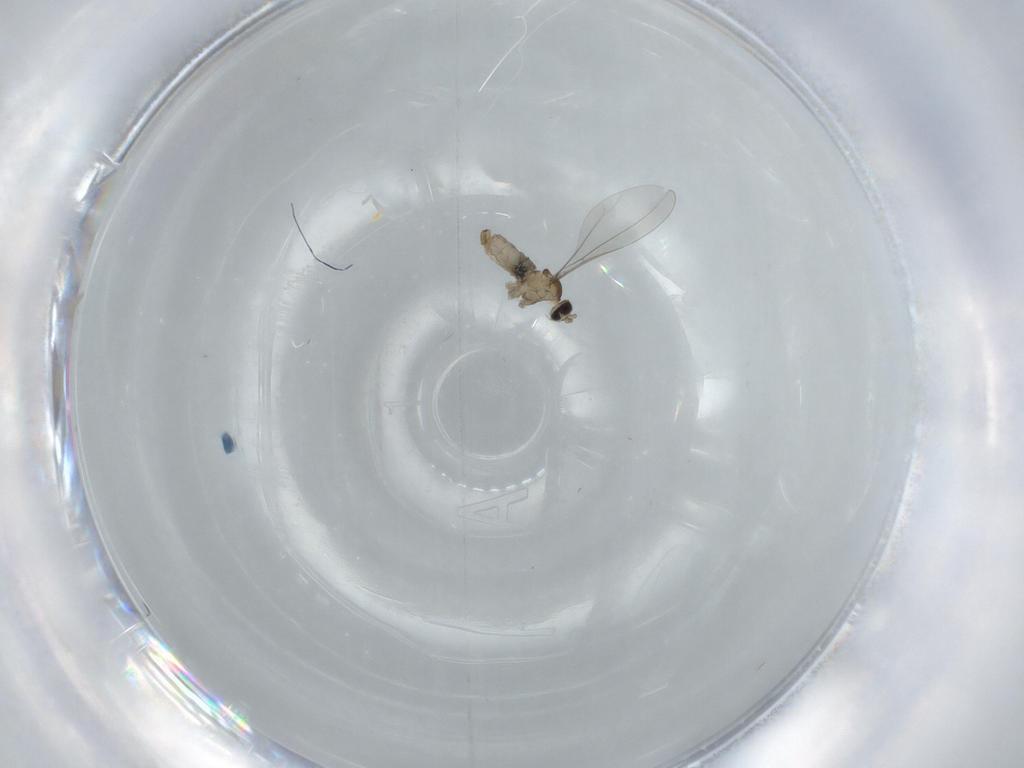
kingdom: Animalia
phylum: Arthropoda
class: Insecta
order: Diptera
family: Cecidomyiidae
